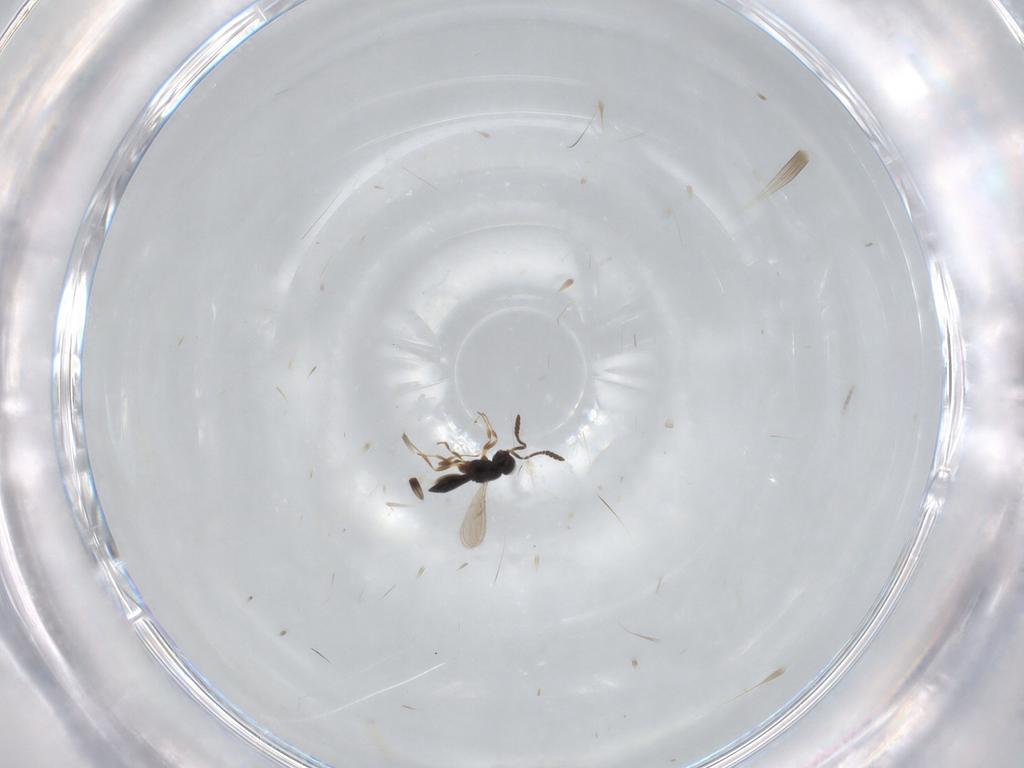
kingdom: Animalia
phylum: Arthropoda
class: Insecta
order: Hymenoptera
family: Scelionidae
